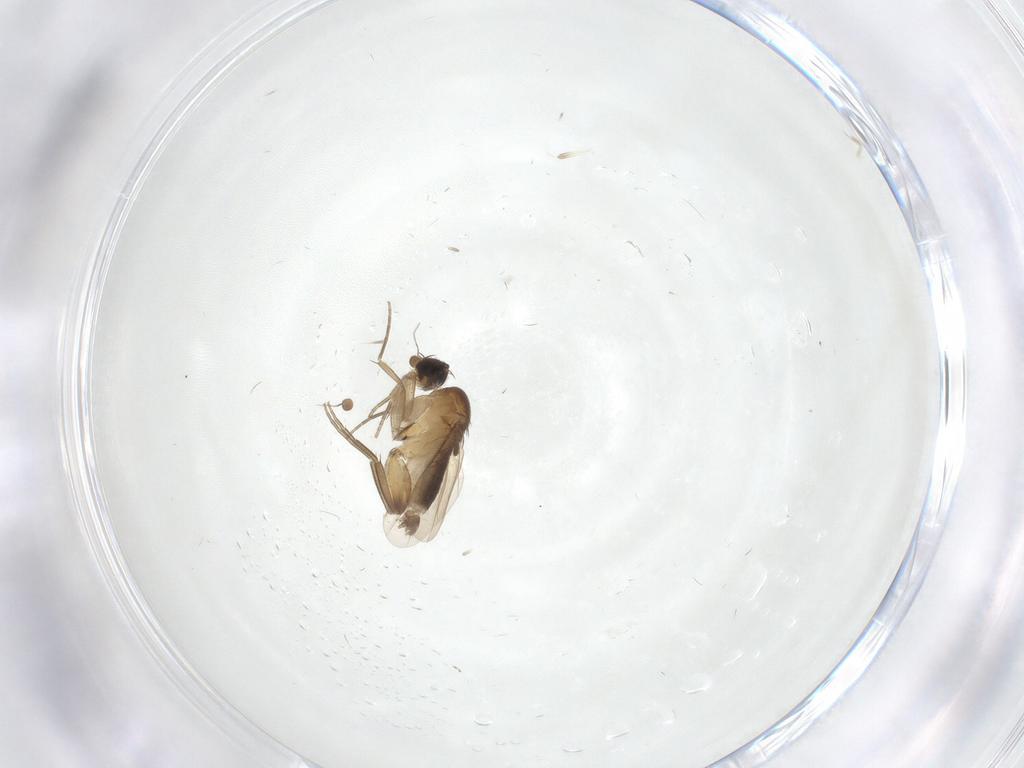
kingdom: Animalia
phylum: Arthropoda
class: Insecta
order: Diptera
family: Phoridae
